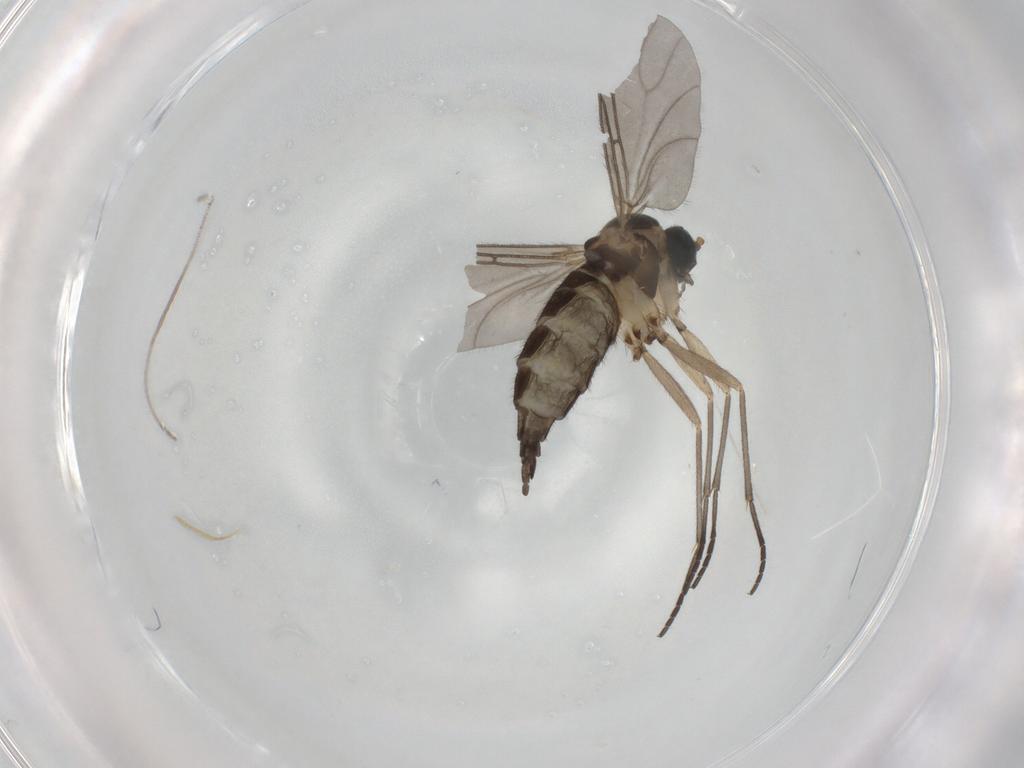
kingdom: Animalia
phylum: Arthropoda
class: Insecta
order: Diptera
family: Sciaridae
